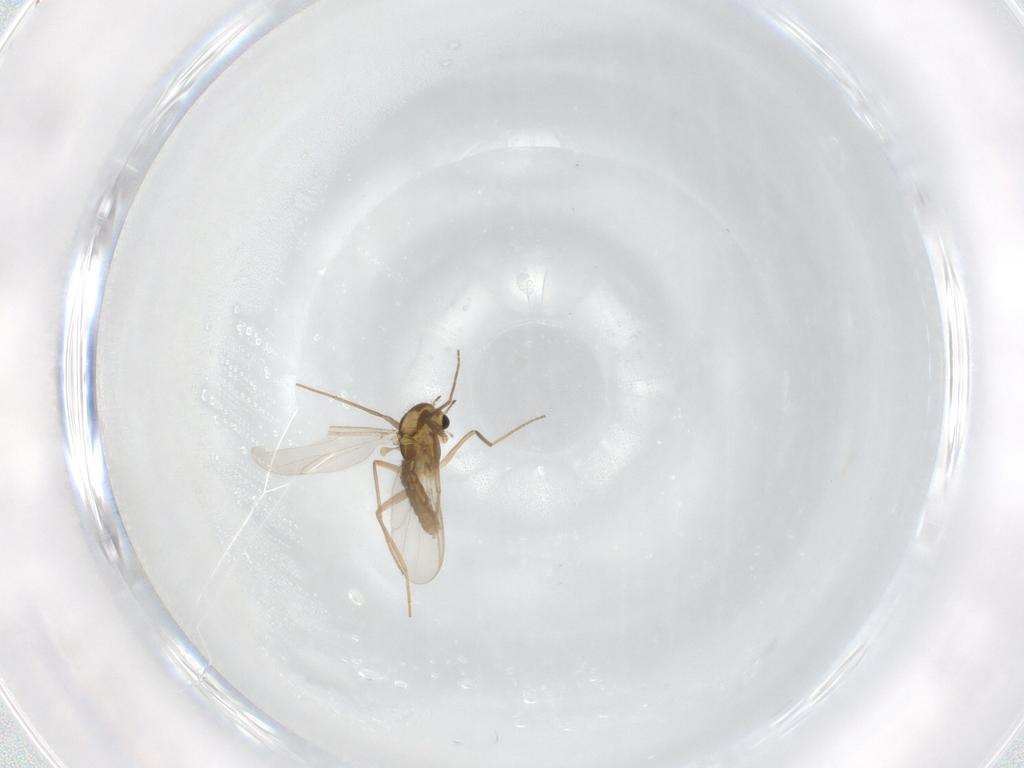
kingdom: Animalia
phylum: Arthropoda
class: Insecta
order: Diptera
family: Chironomidae
